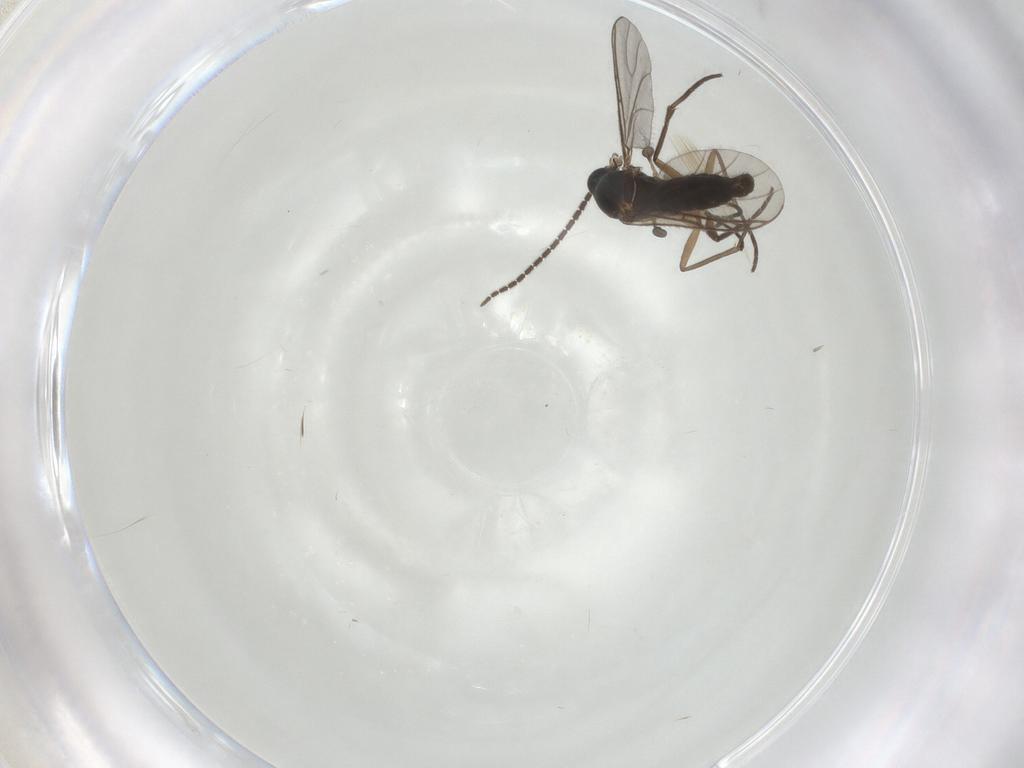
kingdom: Animalia
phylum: Arthropoda
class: Insecta
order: Diptera
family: Sciaridae
